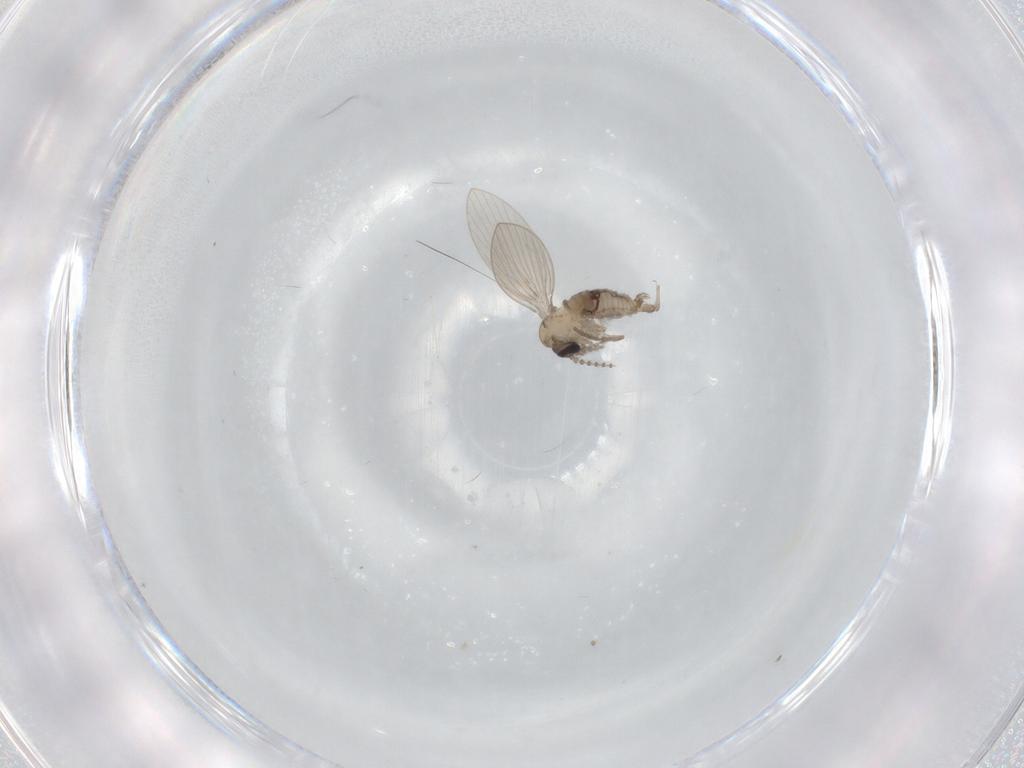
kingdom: Animalia
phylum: Arthropoda
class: Insecta
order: Diptera
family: Psychodidae
